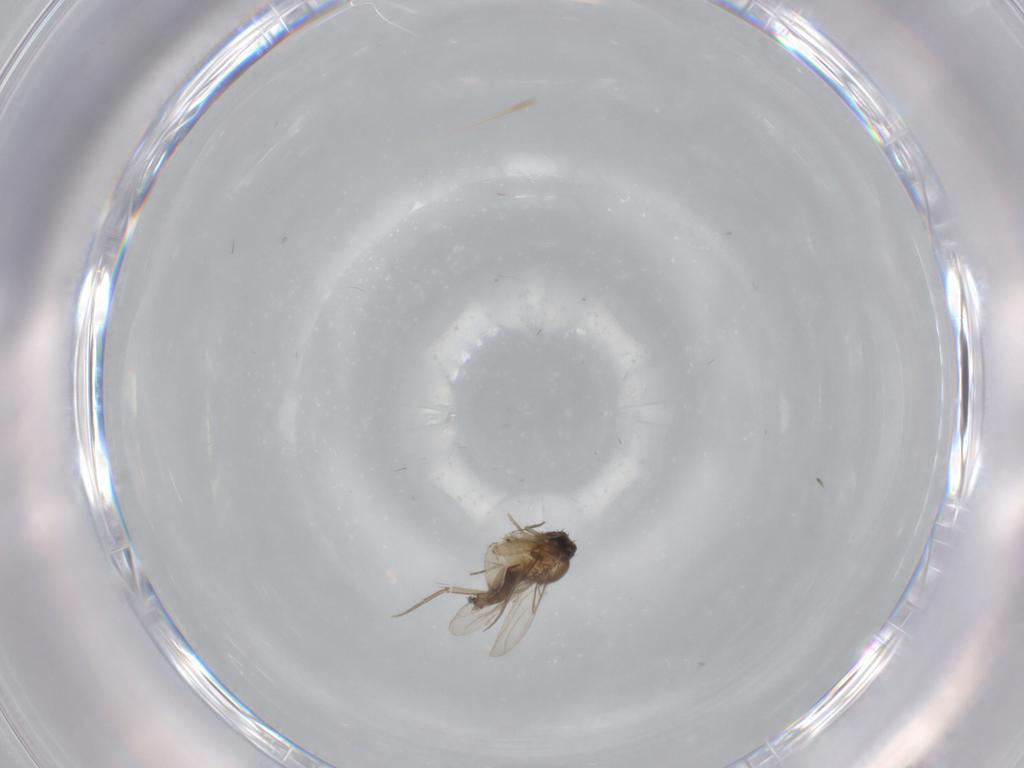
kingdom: Animalia
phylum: Arthropoda
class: Insecta
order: Diptera
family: Phoridae
